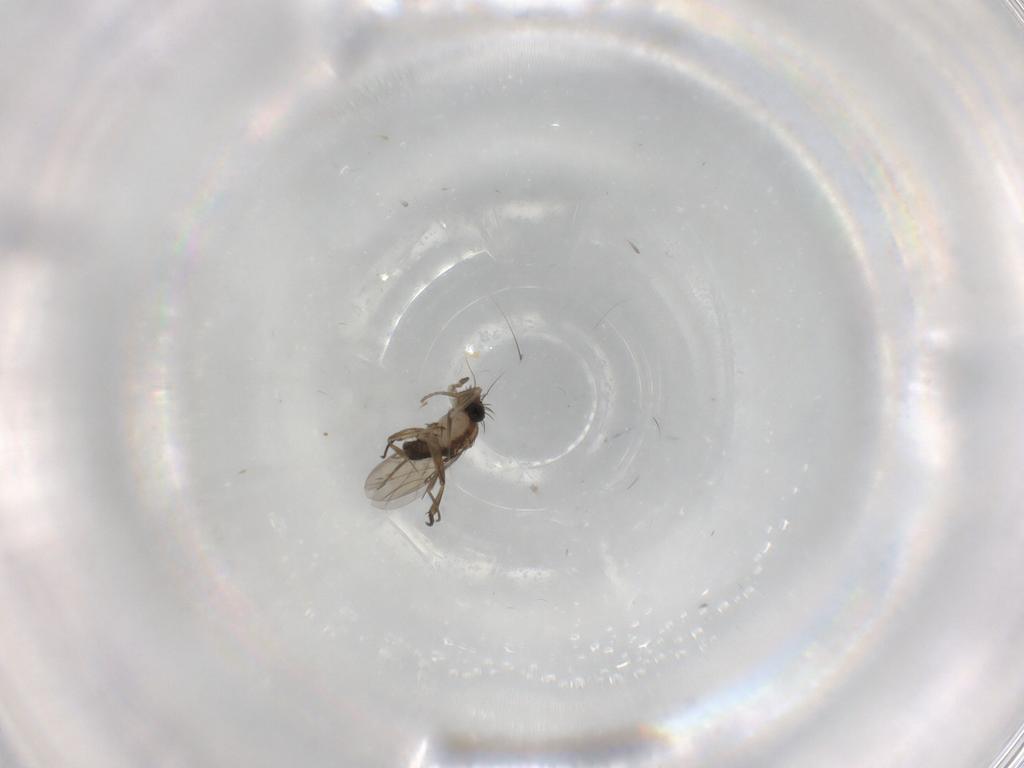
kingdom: Animalia
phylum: Arthropoda
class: Insecta
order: Diptera
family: Phoridae
